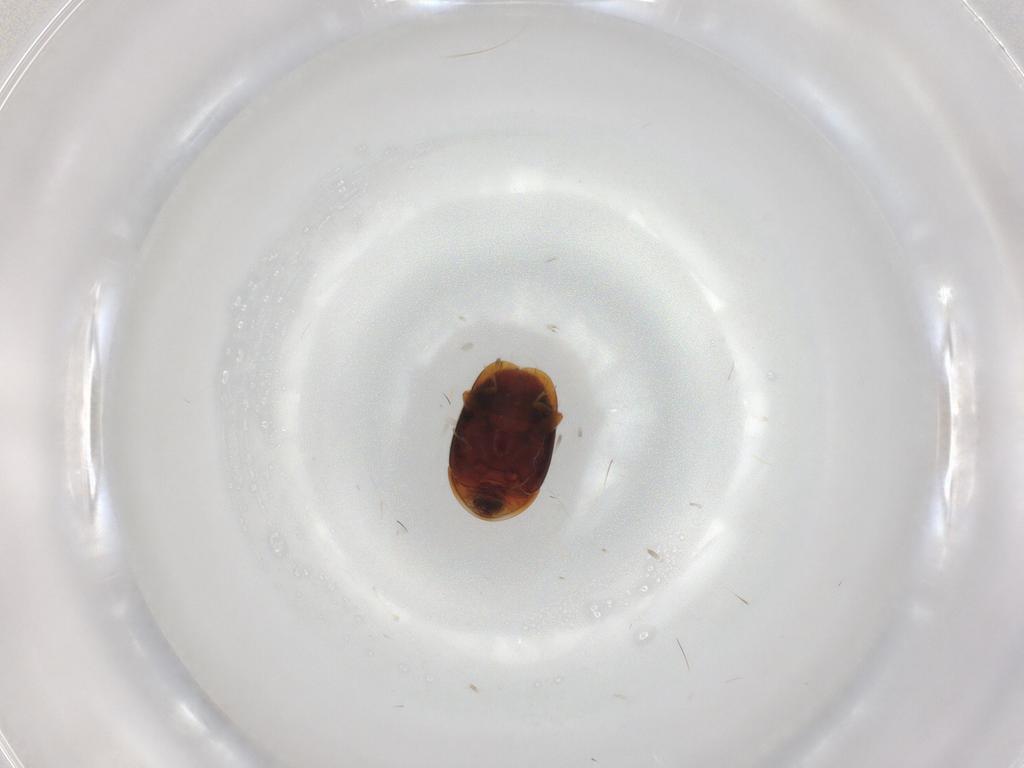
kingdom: Animalia
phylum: Arthropoda
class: Insecta
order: Coleoptera
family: Corylophidae
